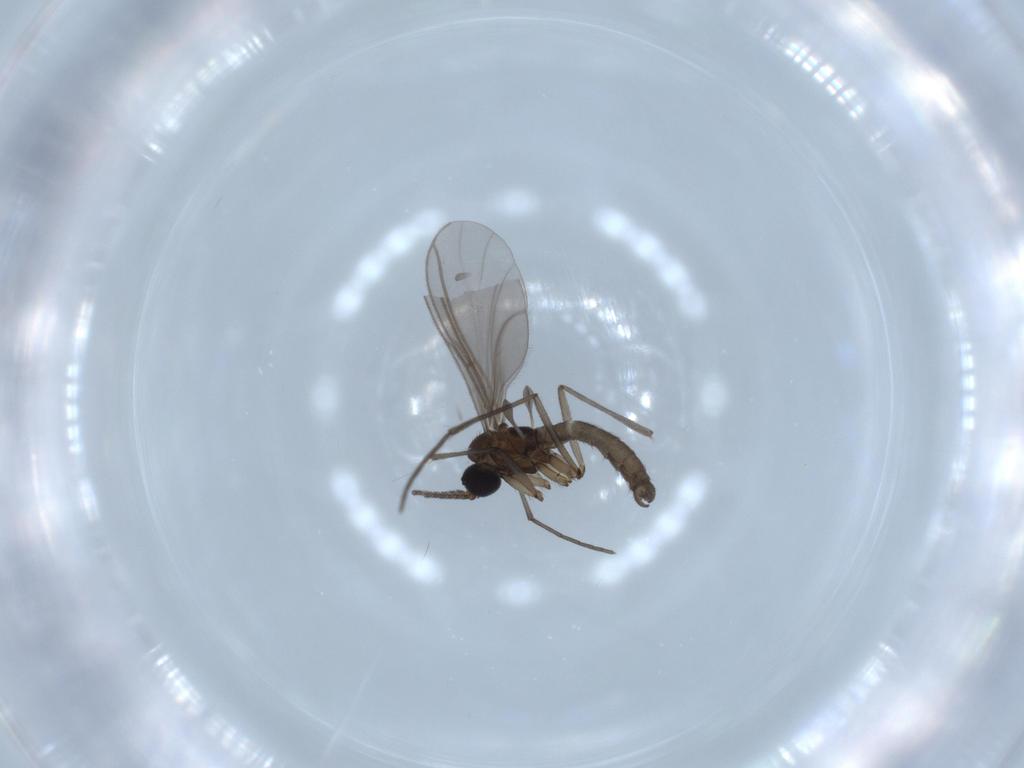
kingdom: Animalia
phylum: Arthropoda
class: Insecta
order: Diptera
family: Sciaridae
